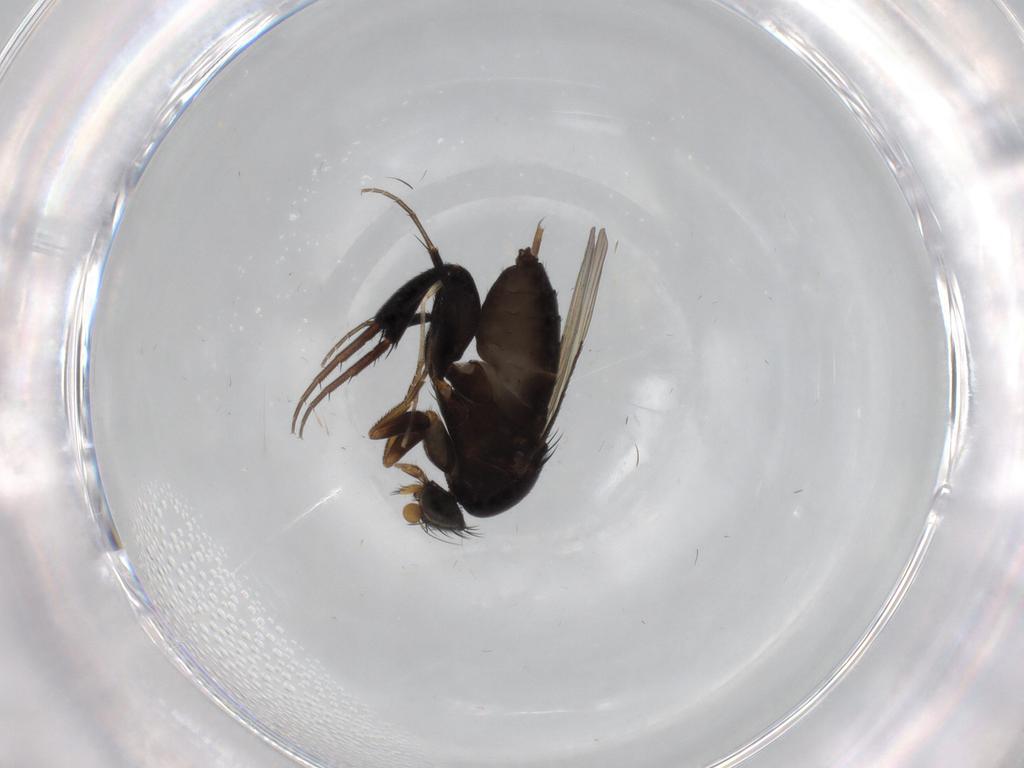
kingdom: Animalia
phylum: Arthropoda
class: Insecta
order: Diptera
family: Phoridae
